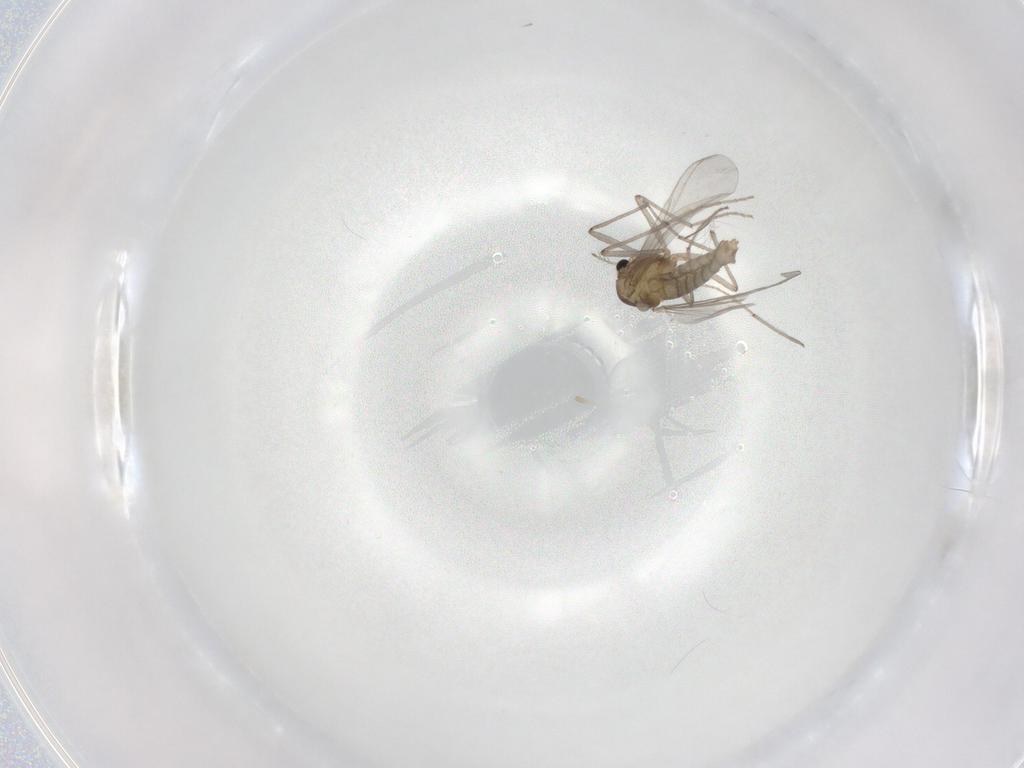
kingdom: Animalia
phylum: Arthropoda
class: Insecta
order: Diptera
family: Chironomidae
